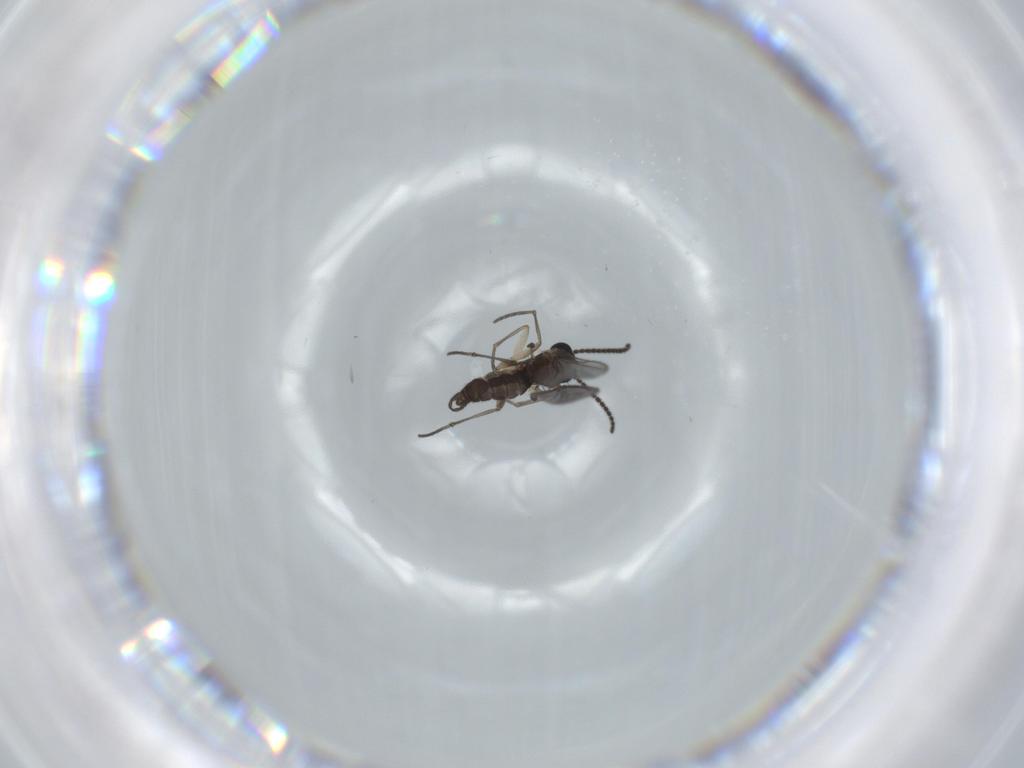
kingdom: Animalia
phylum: Arthropoda
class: Insecta
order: Diptera
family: Sciaridae
